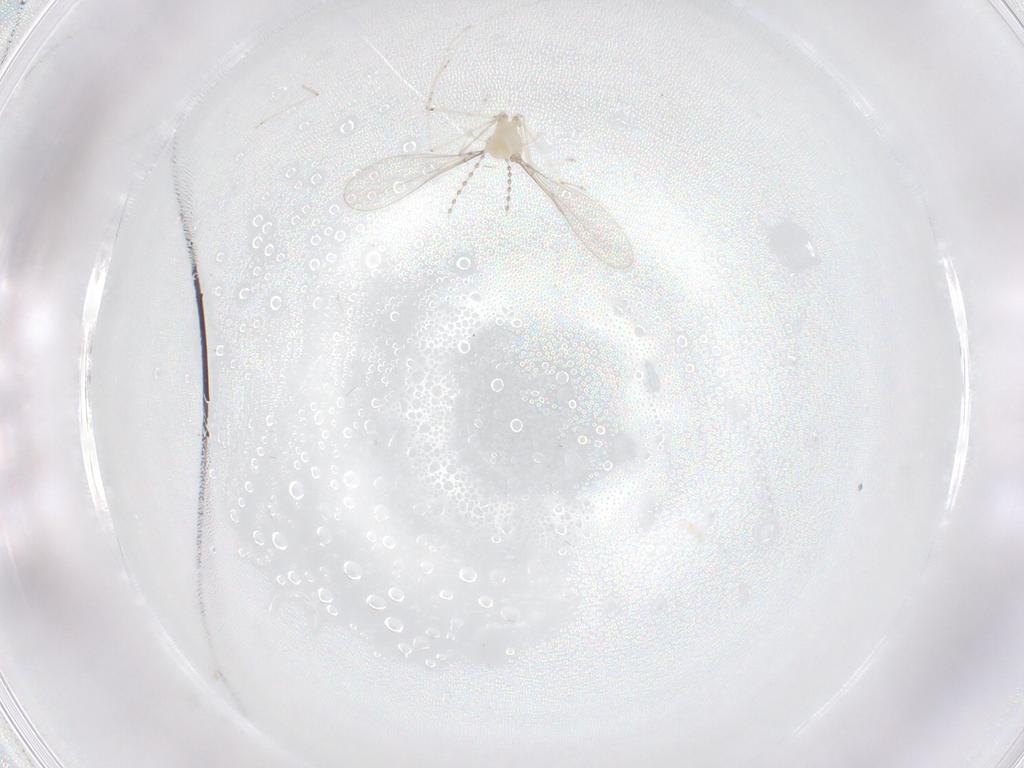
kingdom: Animalia
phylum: Arthropoda
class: Insecta
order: Diptera
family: Cecidomyiidae
